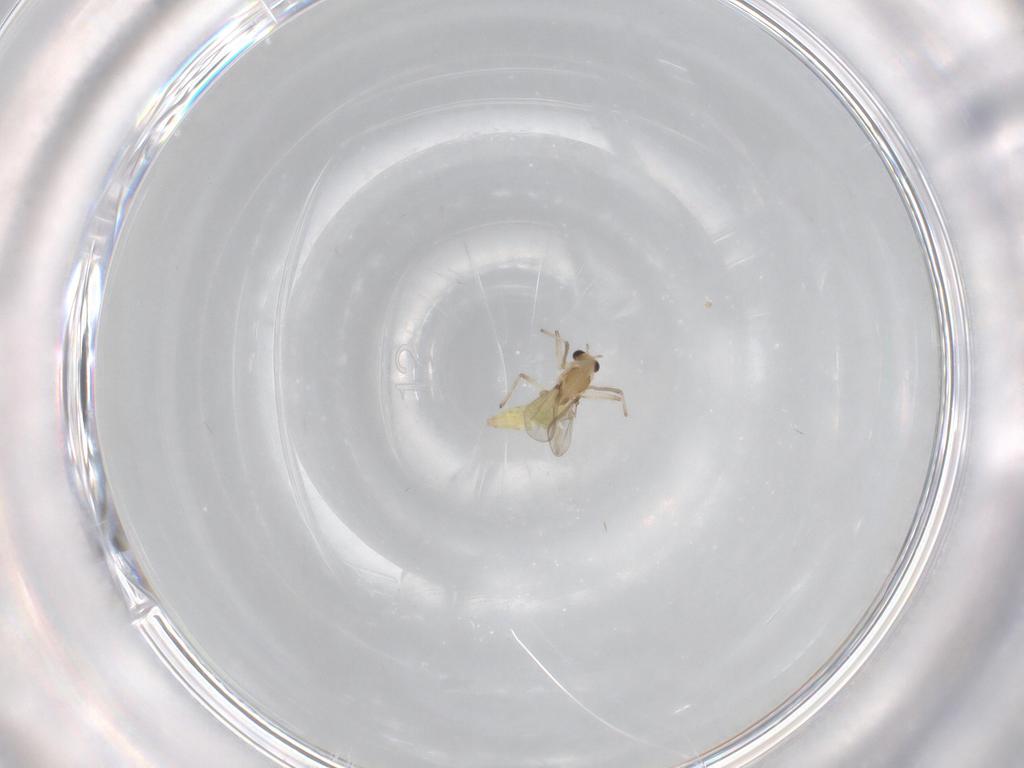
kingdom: Animalia
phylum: Arthropoda
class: Insecta
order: Diptera
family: Chironomidae
